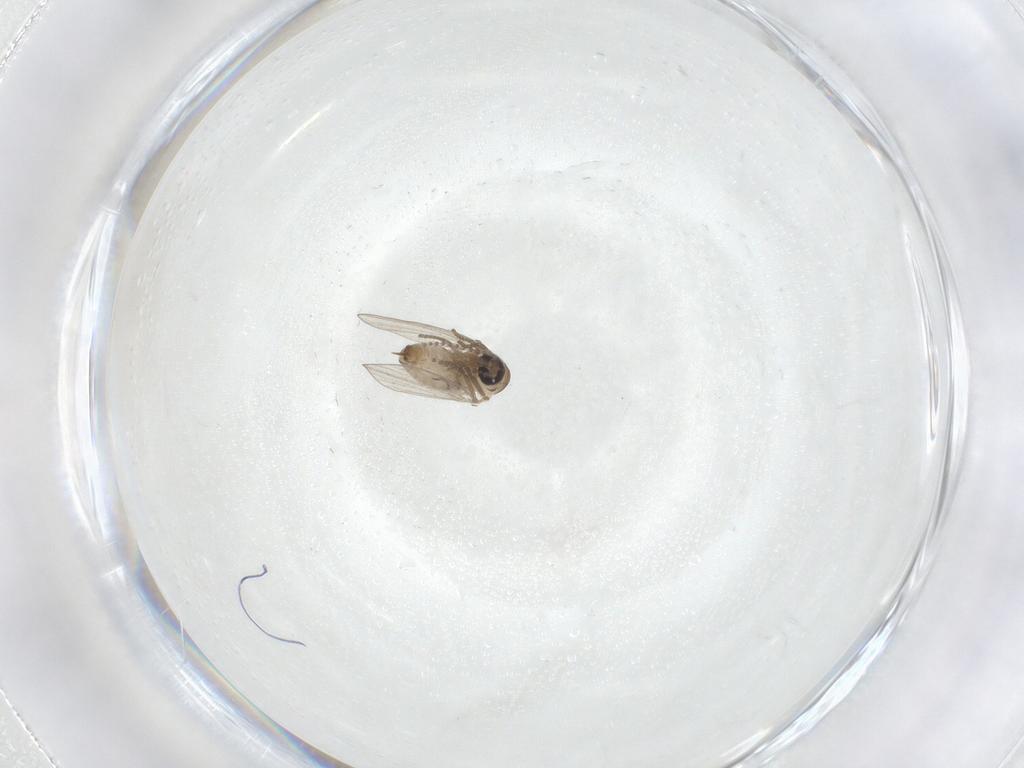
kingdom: Animalia
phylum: Arthropoda
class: Insecta
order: Diptera
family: Psychodidae
